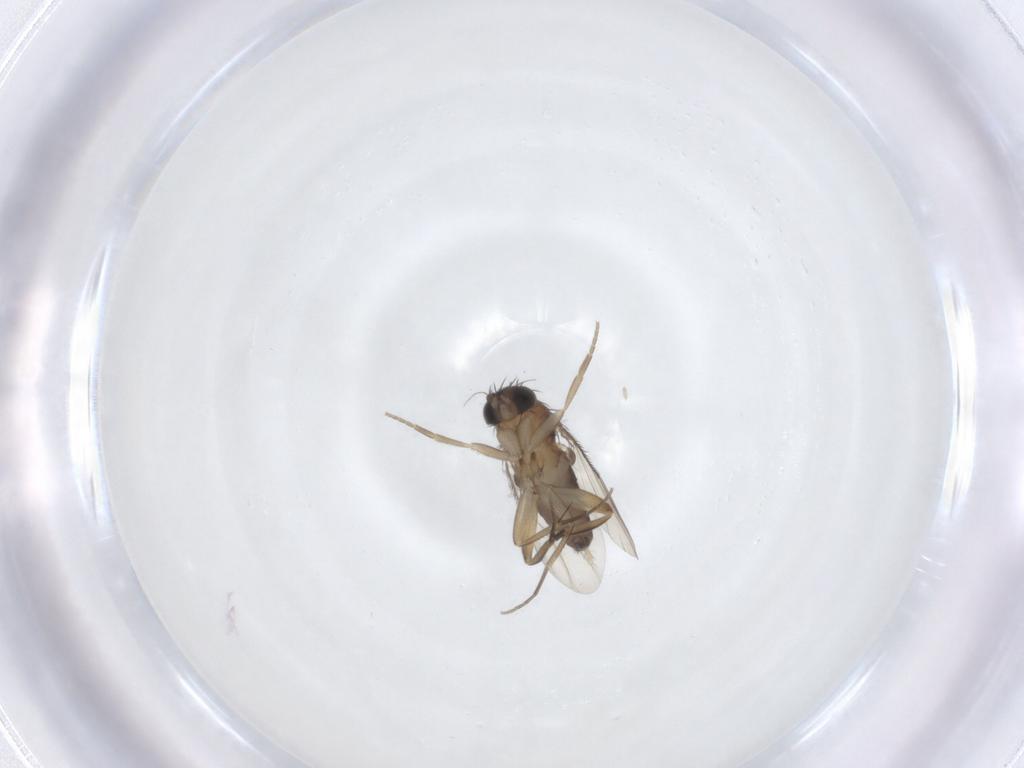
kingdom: Animalia
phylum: Arthropoda
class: Insecta
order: Diptera
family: Phoridae
